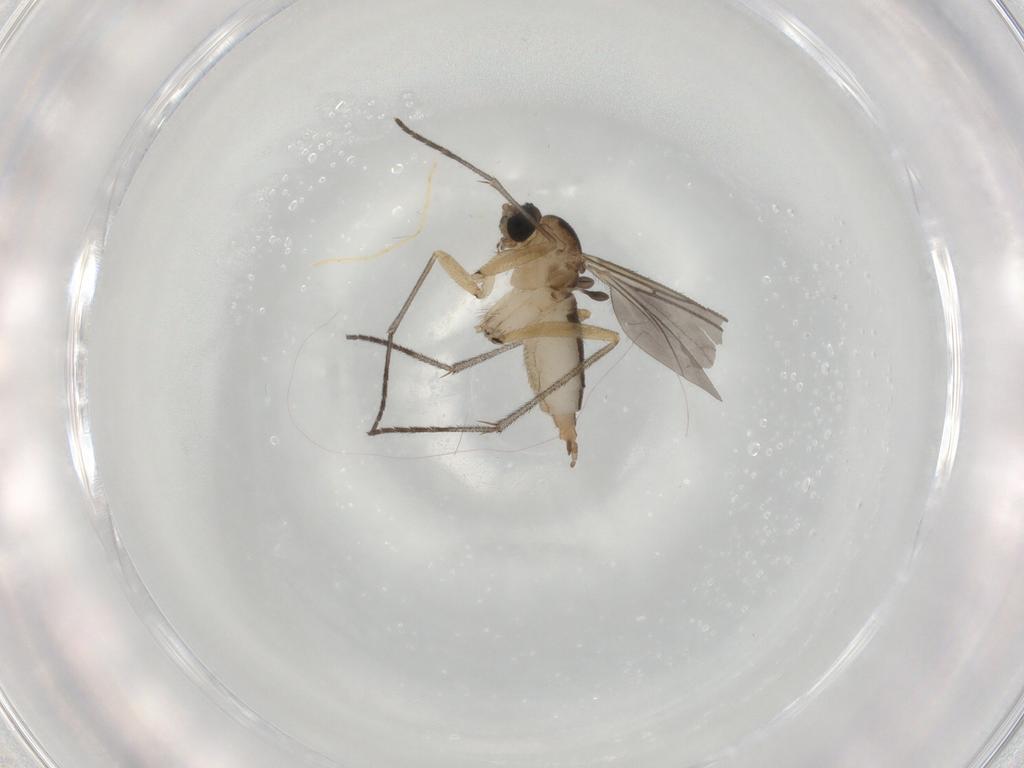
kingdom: Animalia
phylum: Arthropoda
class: Insecta
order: Diptera
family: Sciaridae
